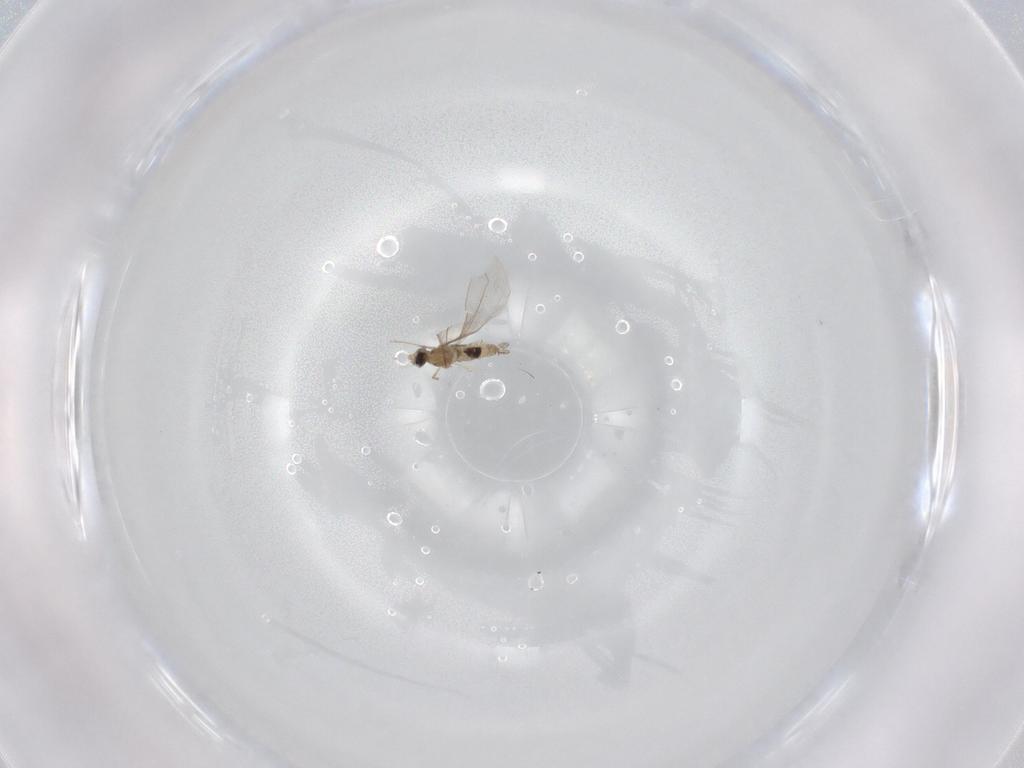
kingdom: Animalia
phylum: Arthropoda
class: Insecta
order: Diptera
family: Cecidomyiidae
